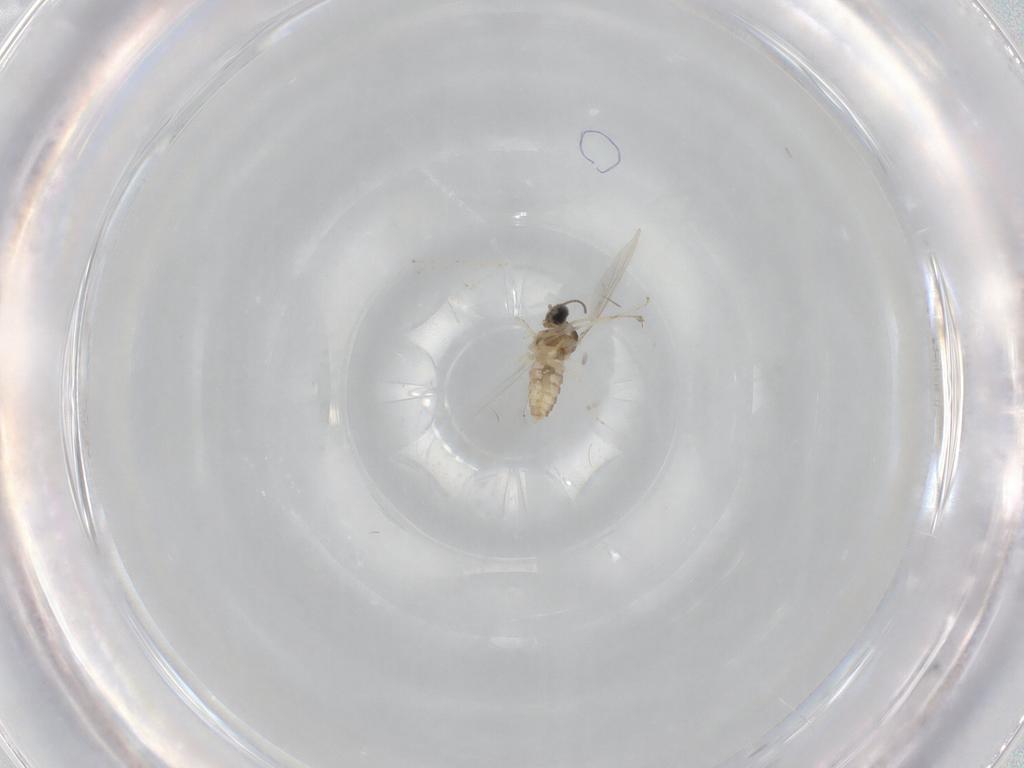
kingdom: Animalia
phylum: Arthropoda
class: Insecta
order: Diptera
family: Cecidomyiidae
